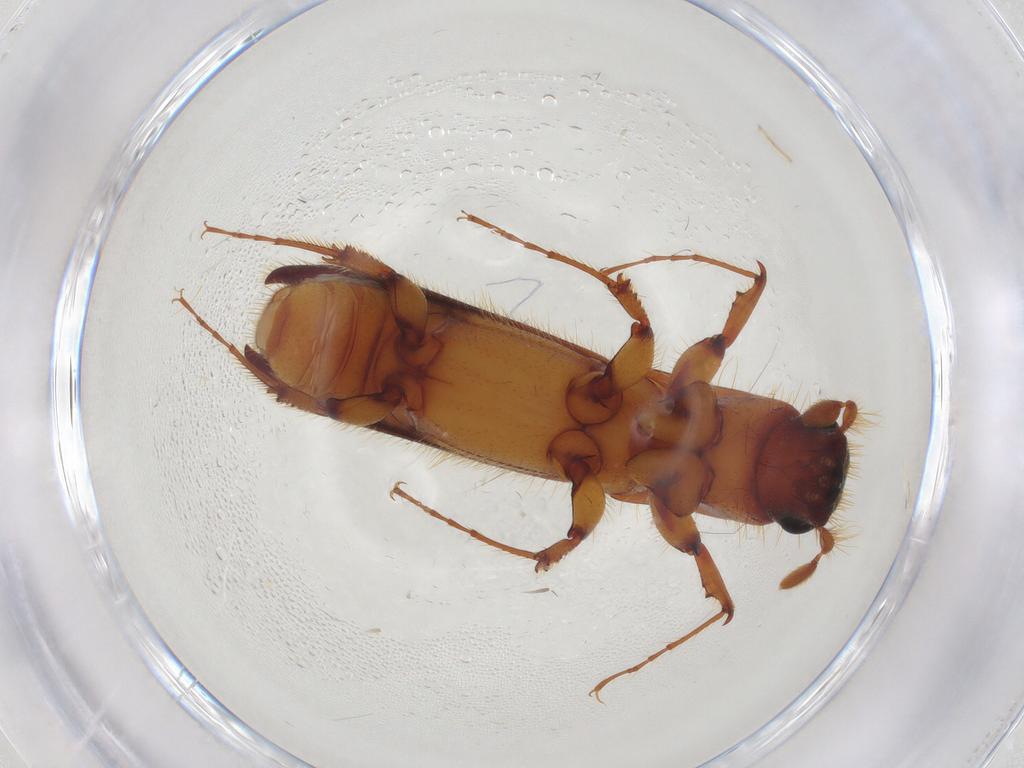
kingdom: Animalia
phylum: Arthropoda
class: Insecta
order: Coleoptera
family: Curculionidae
